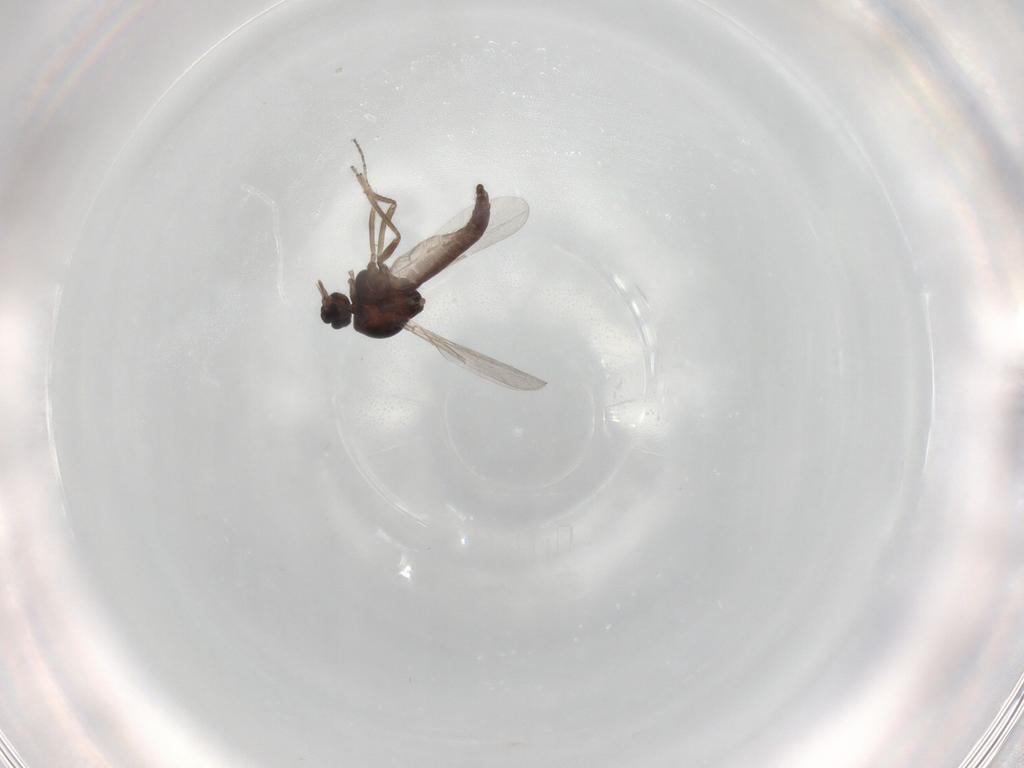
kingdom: Animalia
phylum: Arthropoda
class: Insecta
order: Diptera
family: Ceratopogonidae
